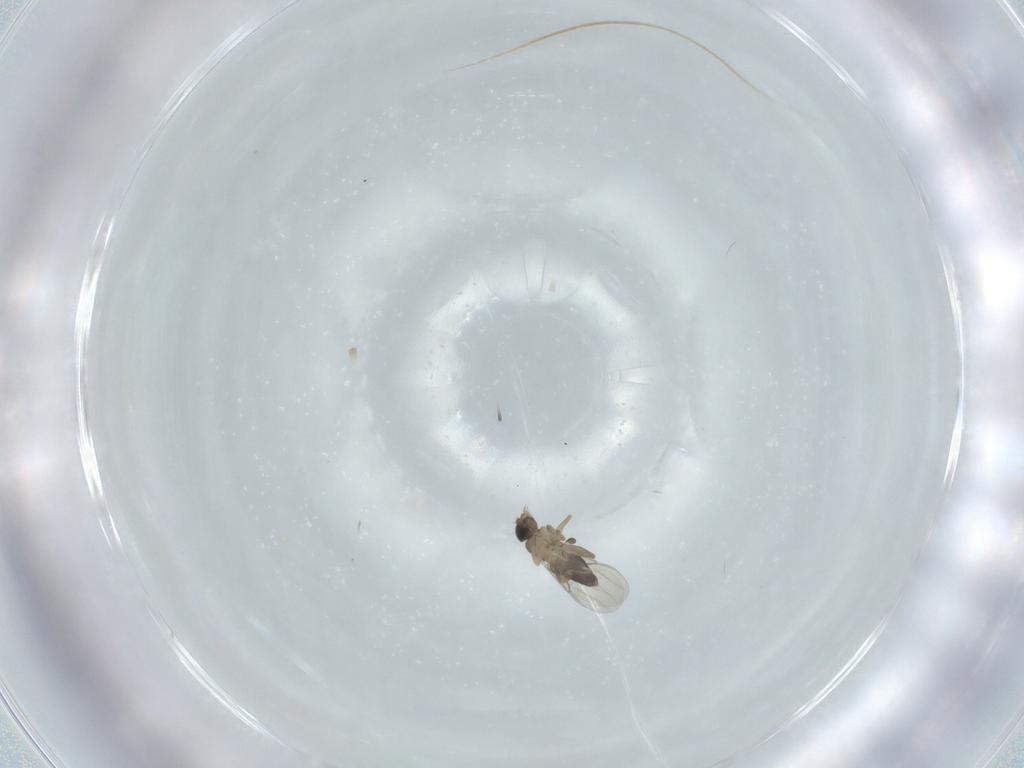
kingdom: Animalia
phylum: Arthropoda
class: Insecta
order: Diptera
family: Phoridae
